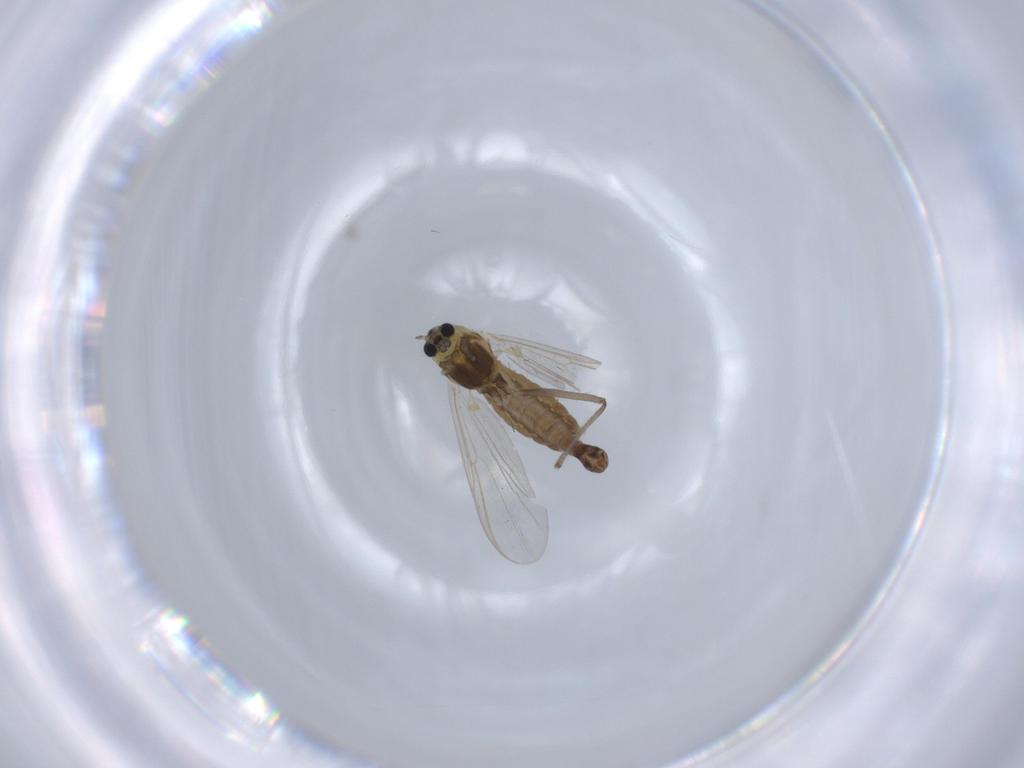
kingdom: Animalia
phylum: Arthropoda
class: Insecta
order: Diptera
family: Chironomidae
